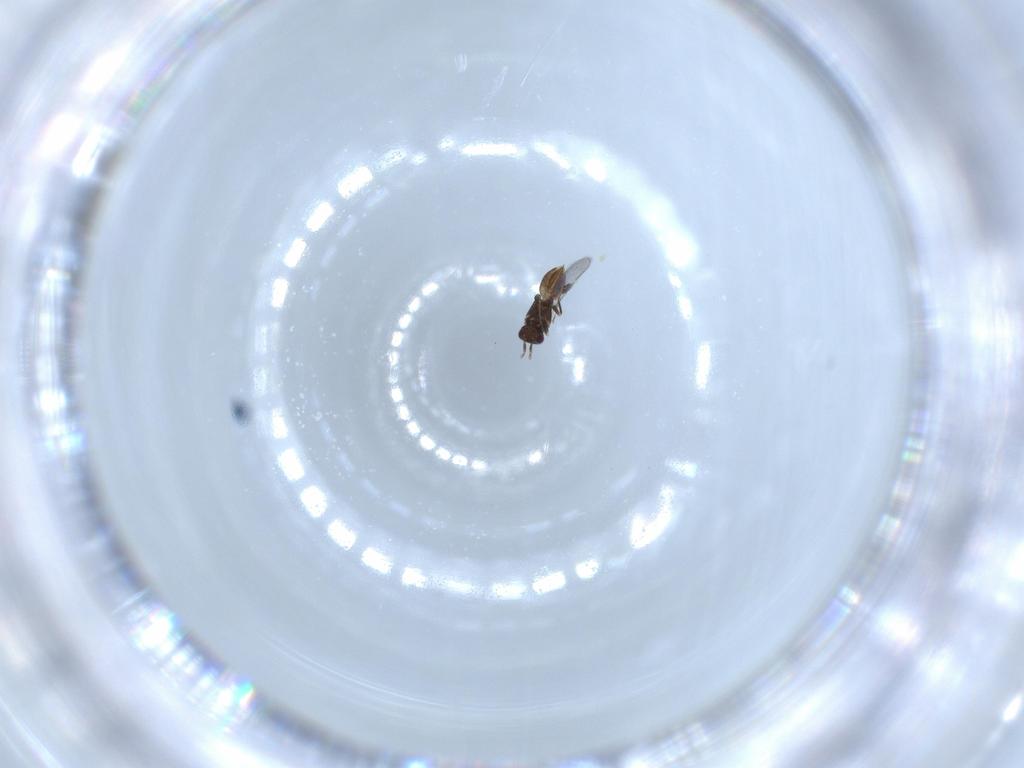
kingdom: Animalia
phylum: Arthropoda
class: Insecta
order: Hymenoptera
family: Mymaridae
